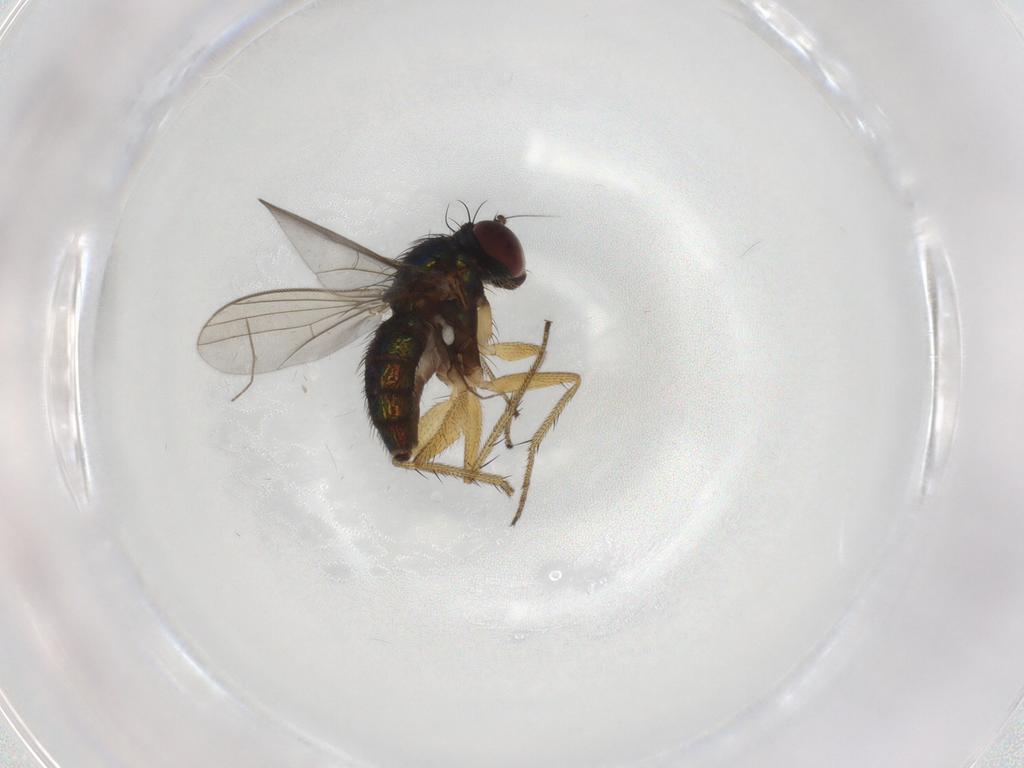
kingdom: Animalia
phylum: Arthropoda
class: Insecta
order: Diptera
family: Dolichopodidae
